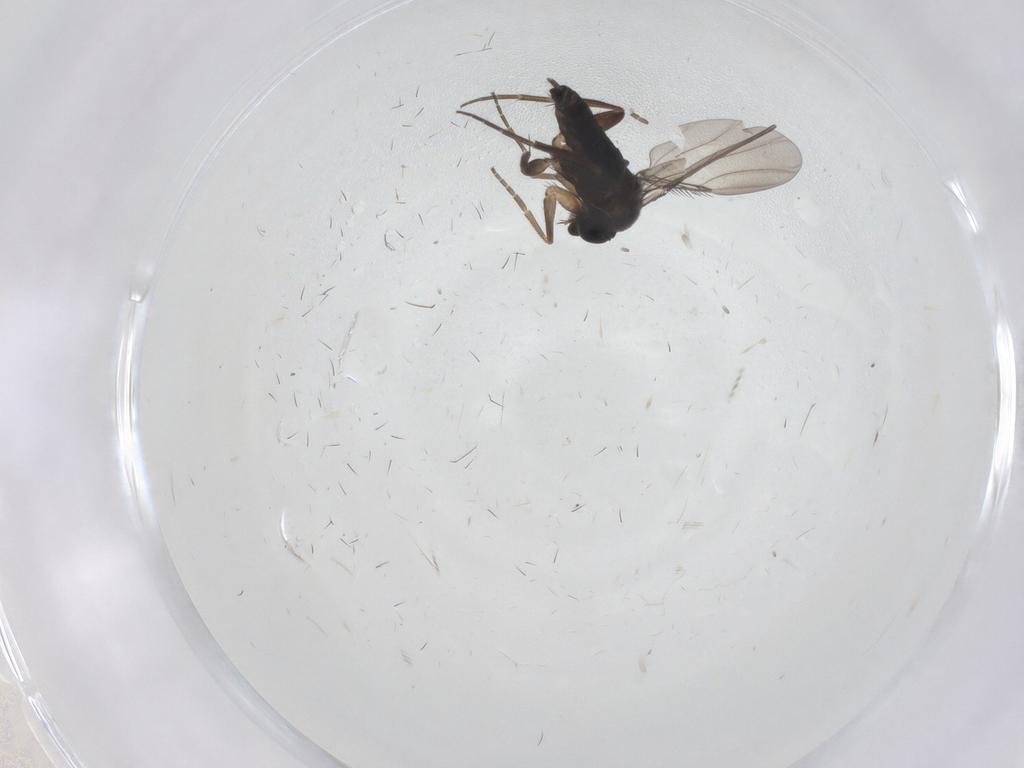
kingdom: Animalia
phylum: Arthropoda
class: Insecta
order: Diptera
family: Phoridae
